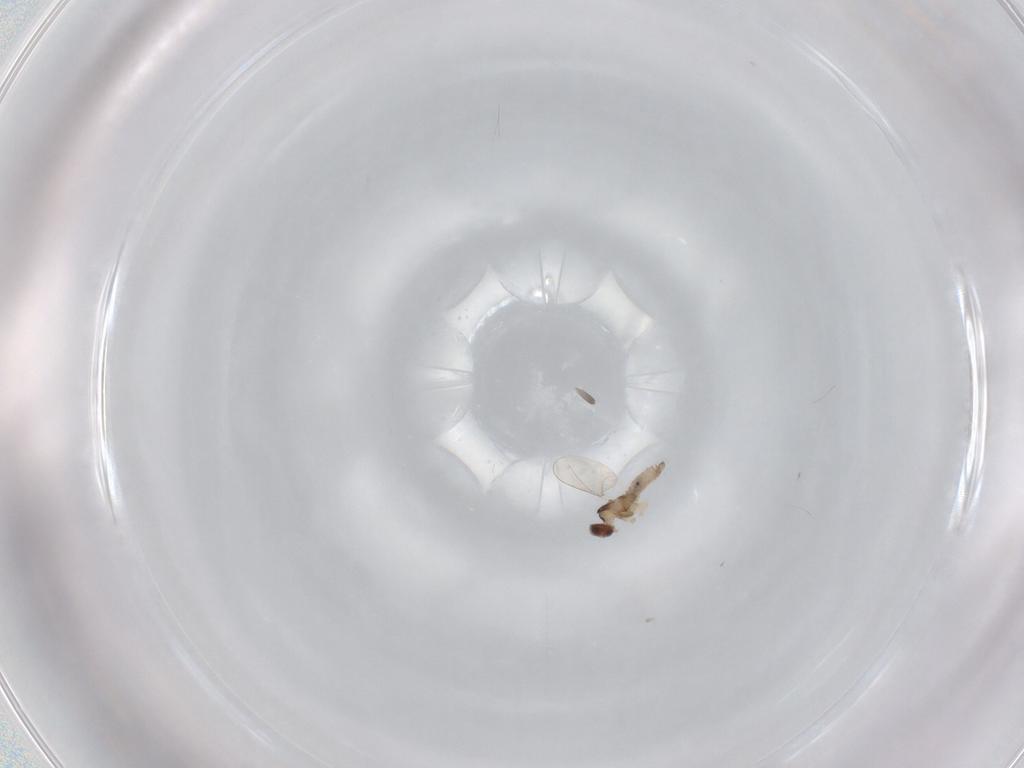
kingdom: Animalia
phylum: Arthropoda
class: Insecta
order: Diptera
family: Cecidomyiidae
